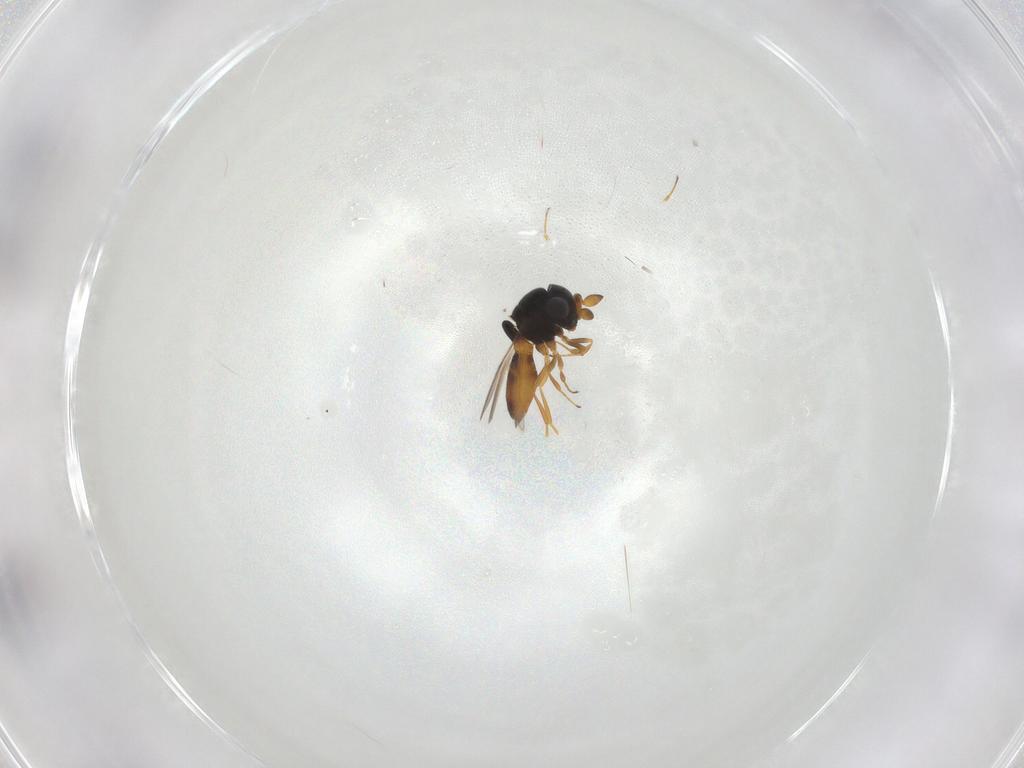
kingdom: Animalia
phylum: Arthropoda
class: Insecta
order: Hymenoptera
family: Scelionidae
